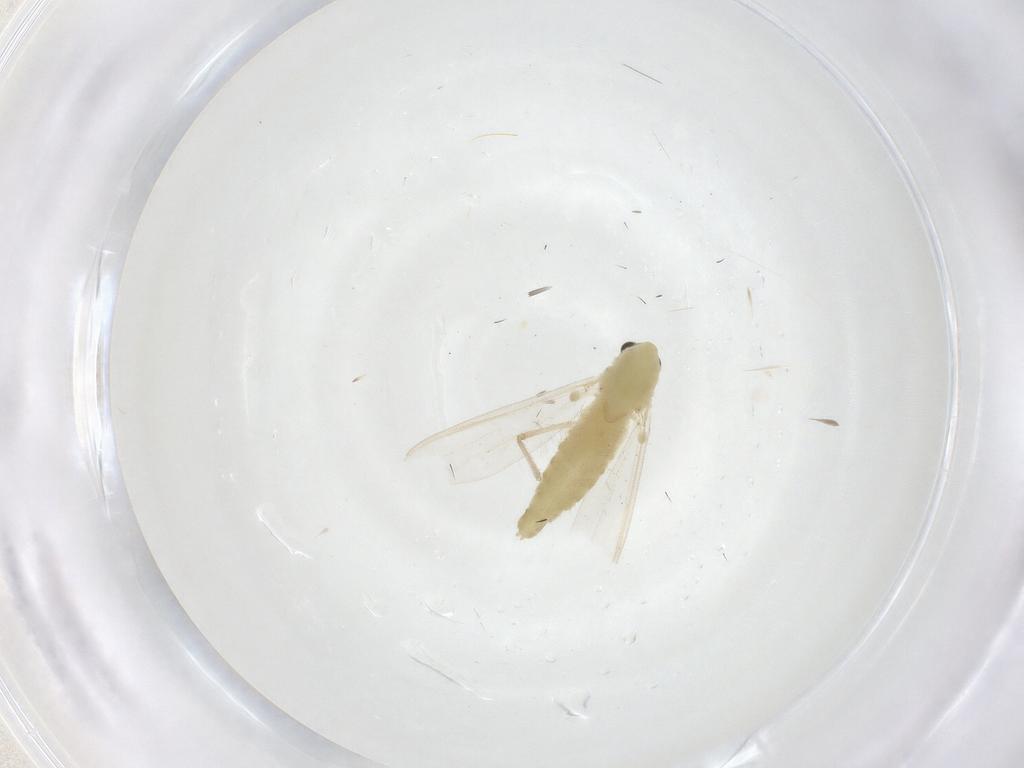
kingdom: Animalia
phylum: Arthropoda
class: Insecta
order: Diptera
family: Chironomidae
